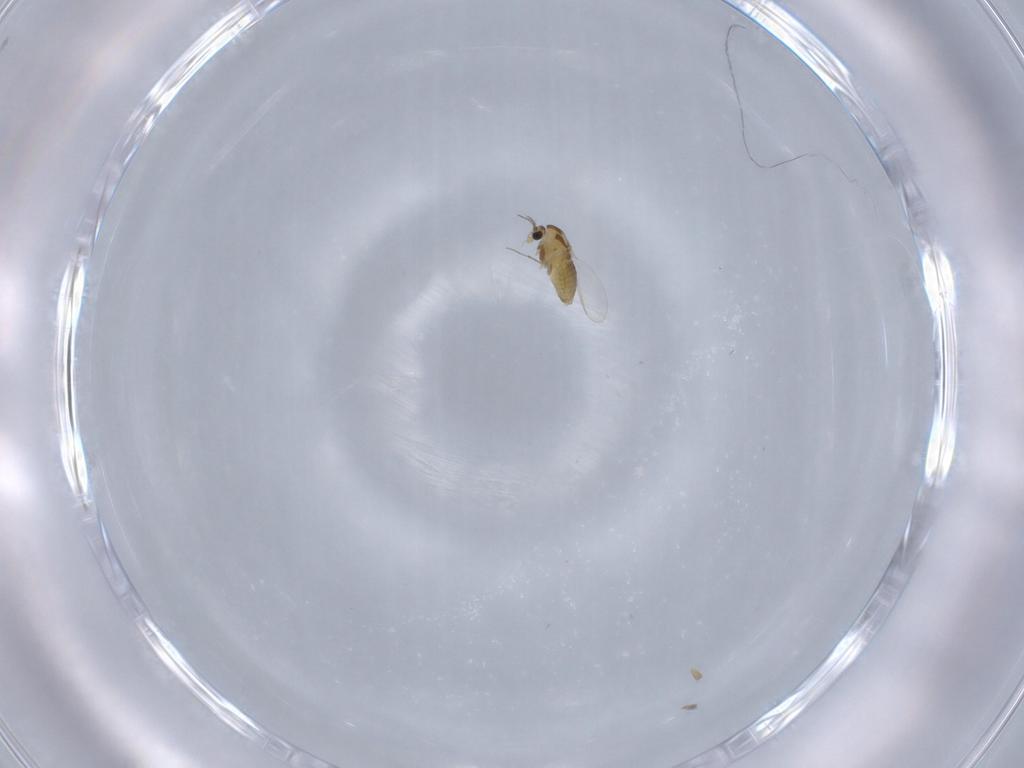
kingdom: Animalia
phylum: Arthropoda
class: Insecta
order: Diptera
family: Chironomidae
